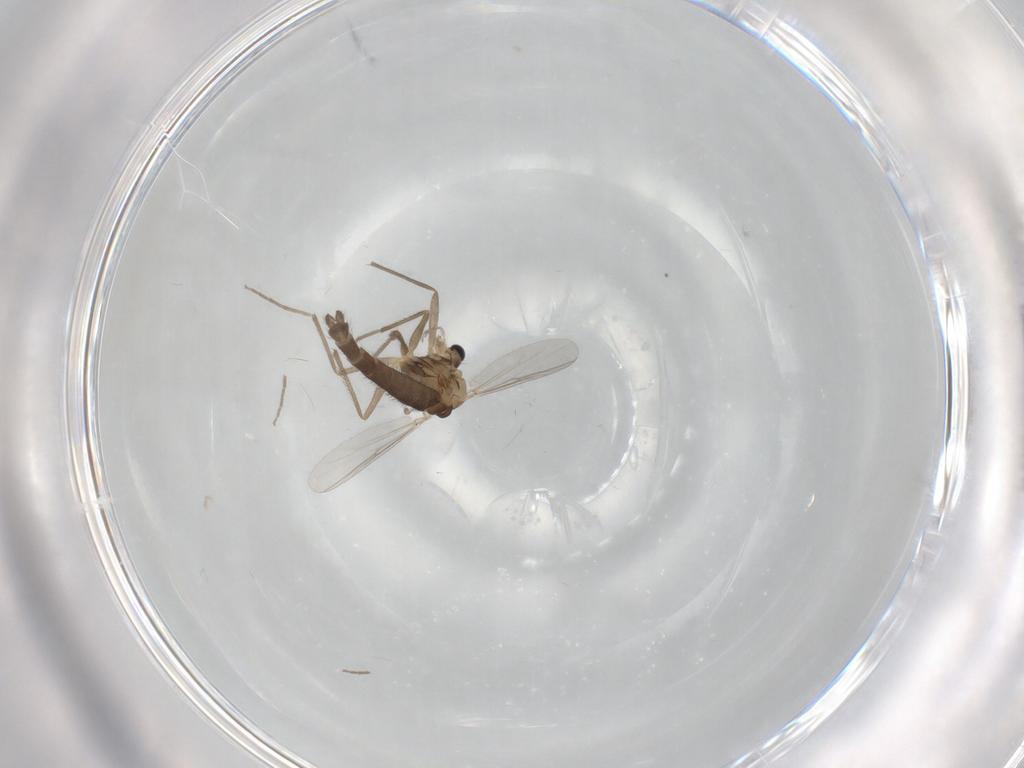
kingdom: Animalia
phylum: Arthropoda
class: Insecta
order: Diptera
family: Chironomidae
